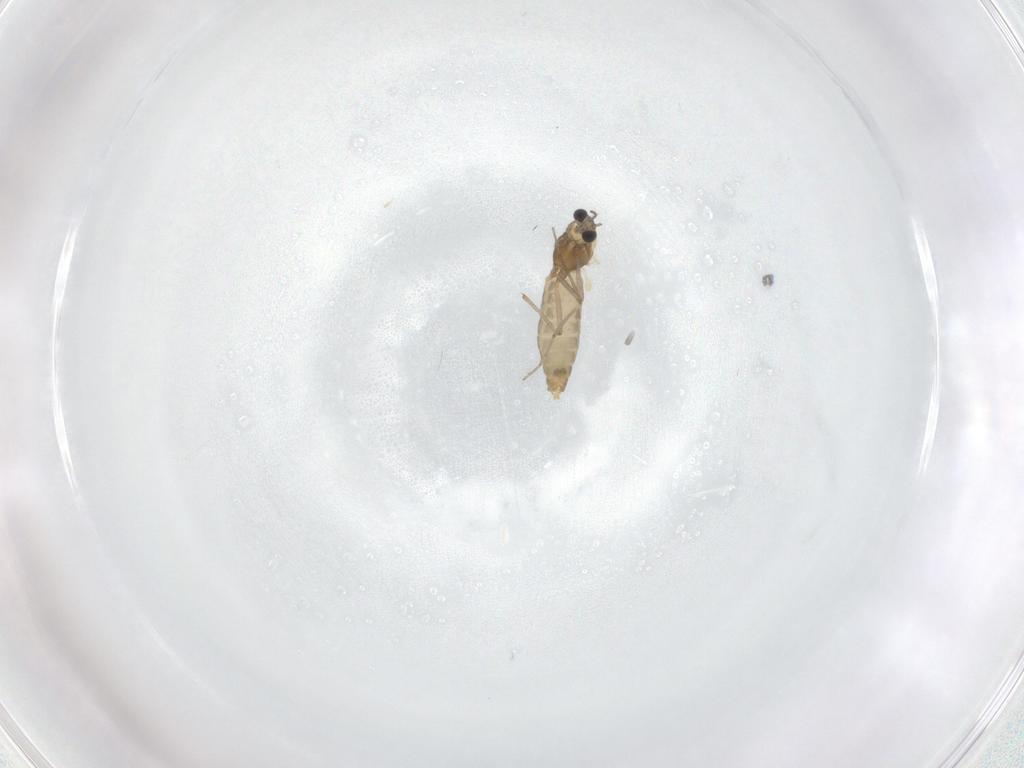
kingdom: Animalia
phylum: Arthropoda
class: Insecta
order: Diptera
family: Chironomidae
